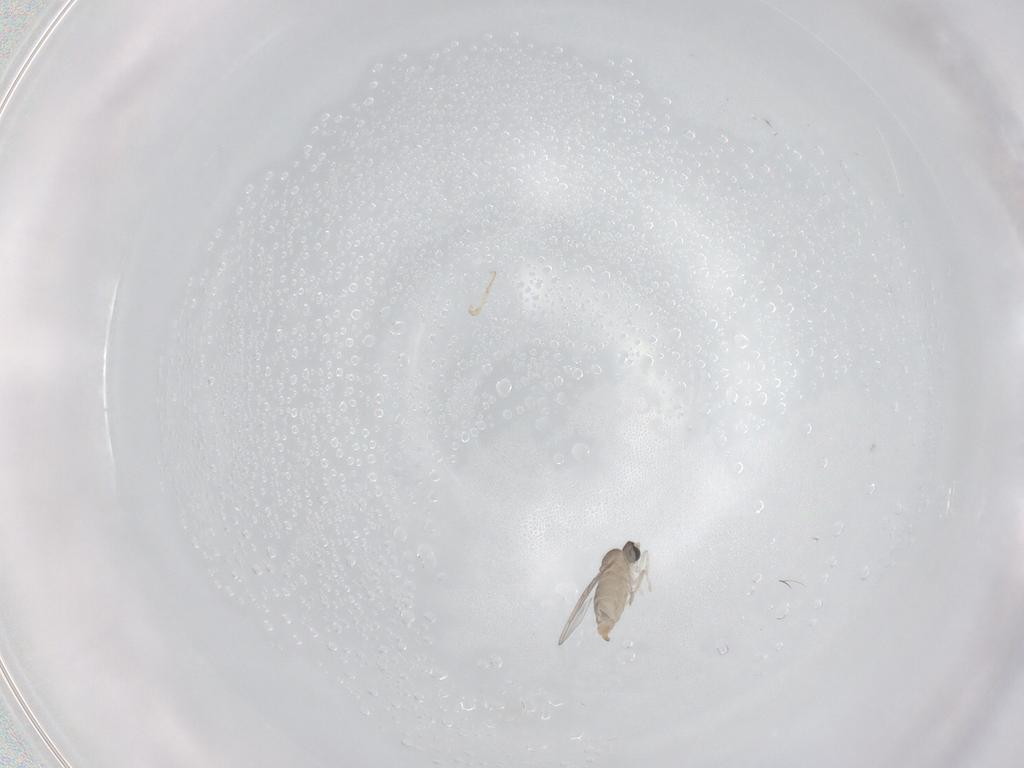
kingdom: Animalia
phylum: Arthropoda
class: Insecta
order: Diptera
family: Cecidomyiidae
